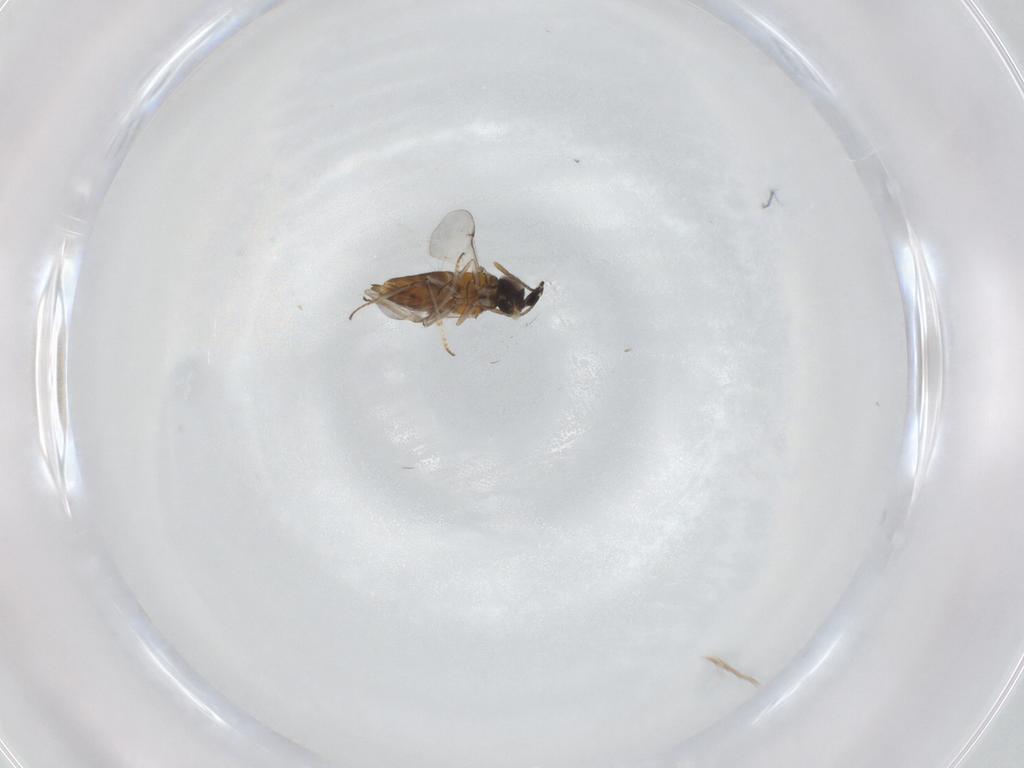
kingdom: Animalia
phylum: Arthropoda
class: Insecta
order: Hymenoptera
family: Encyrtidae
